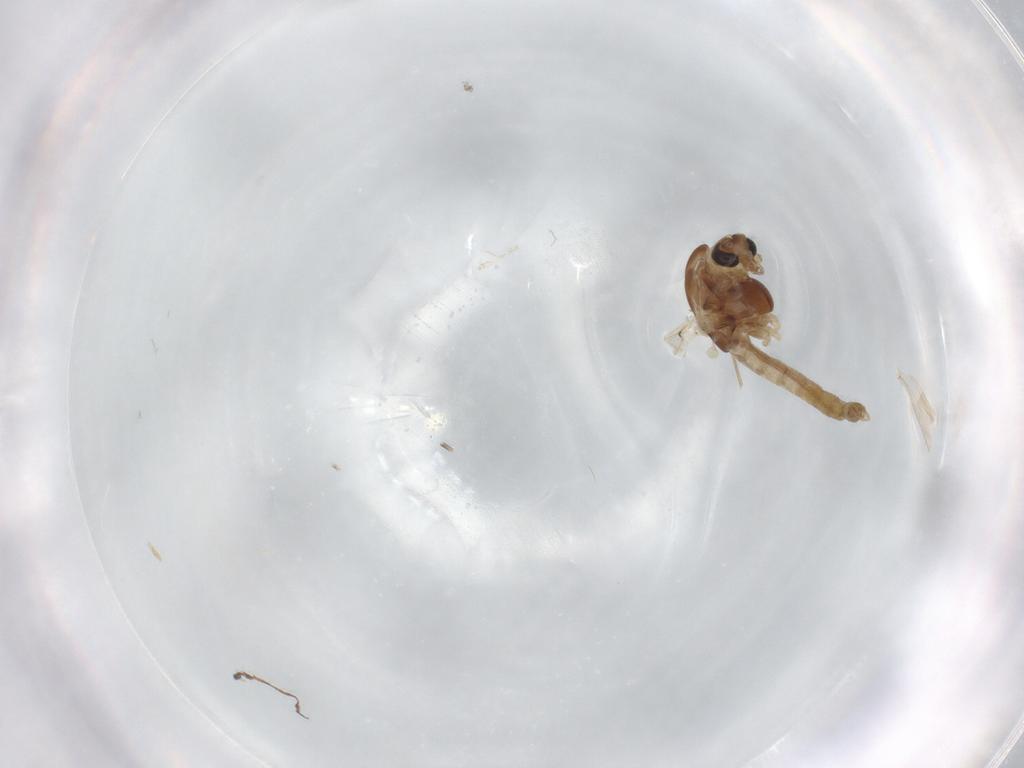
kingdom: Animalia
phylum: Arthropoda
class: Insecta
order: Diptera
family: Chironomidae
